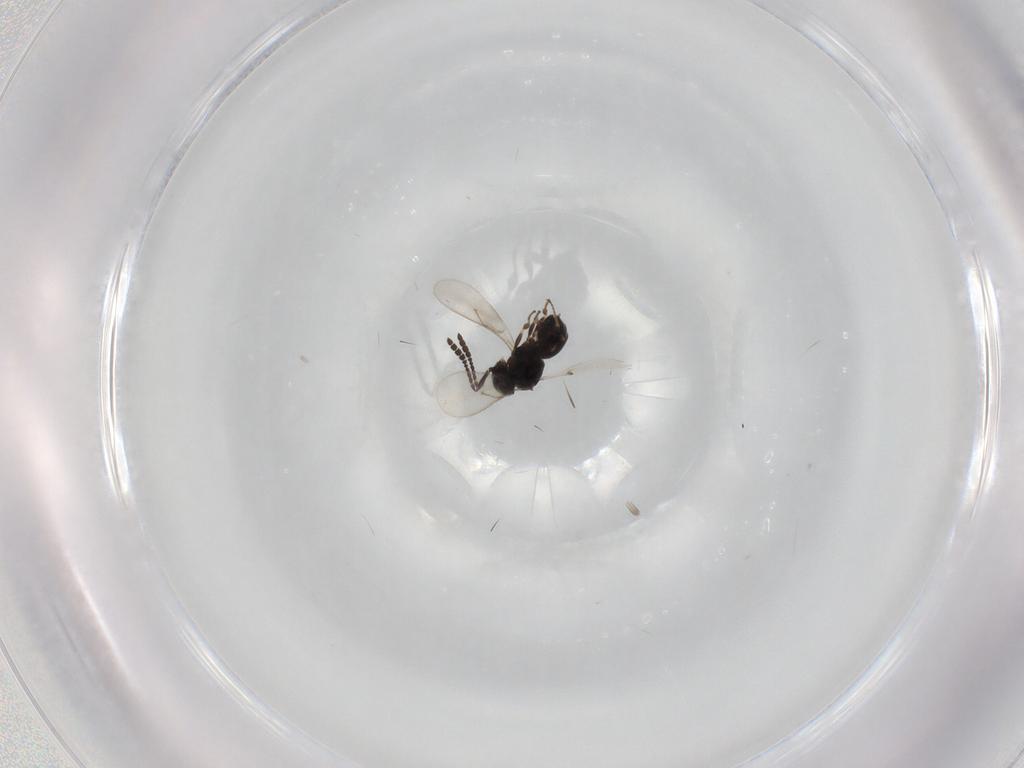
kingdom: Animalia
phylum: Arthropoda
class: Insecta
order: Hymenoptera
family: Scelionidae
